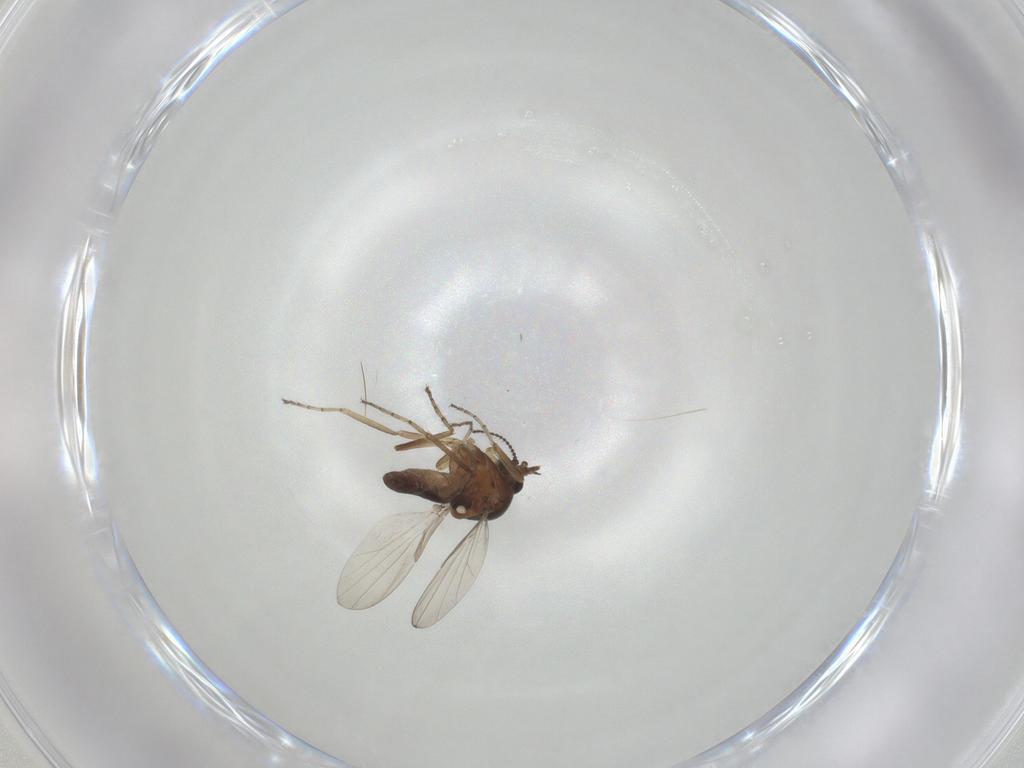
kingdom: Animalia
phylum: Arthropoda
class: Insecta
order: Diptera
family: Ceratopogonidae
